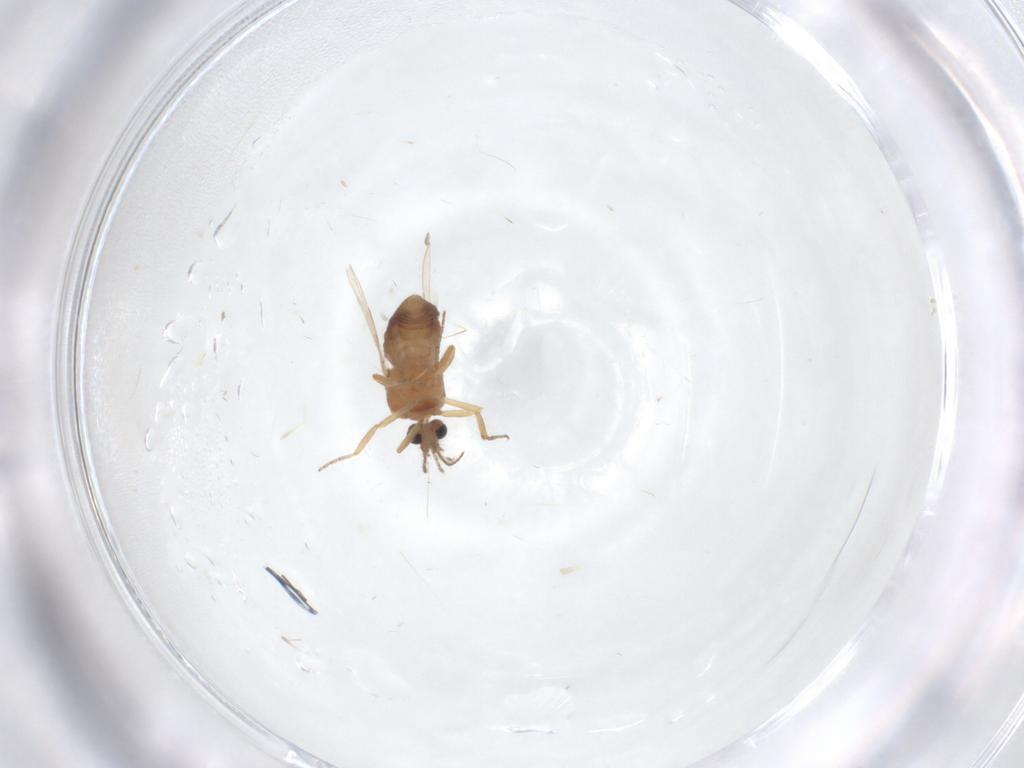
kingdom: Animalia
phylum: Arthropoda
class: Insecta
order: Diptera
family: Ceratopogonidae
